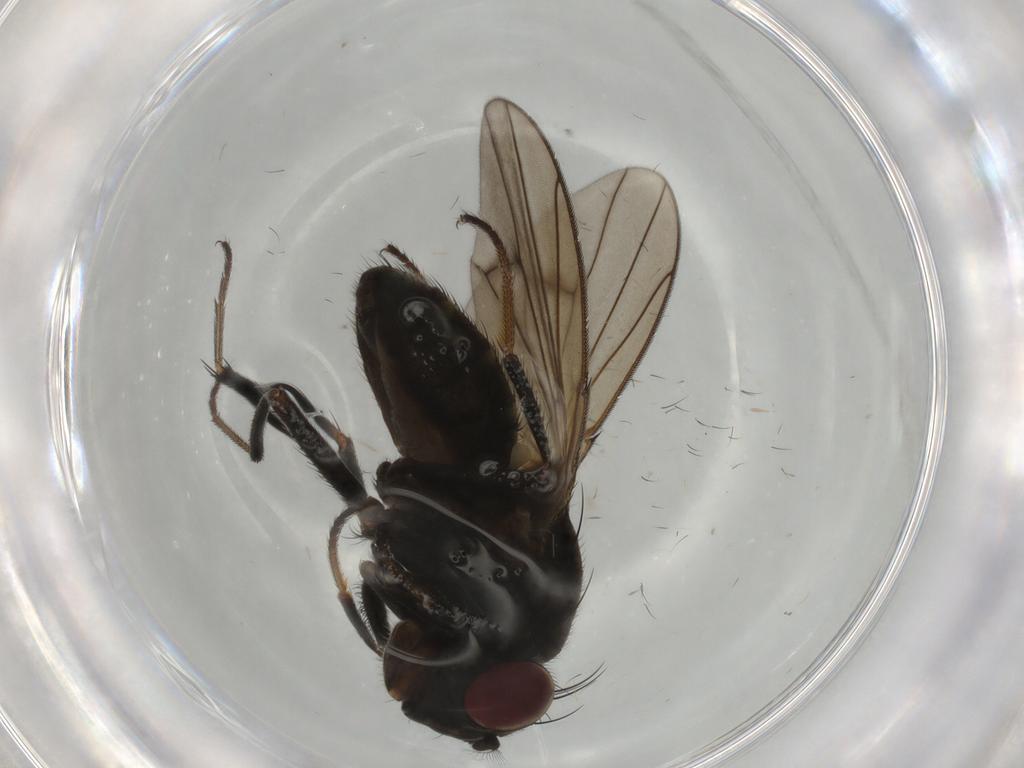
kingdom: Animalia
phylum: Arthropoda
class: Insecta
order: Diptera
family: Ephydridae
